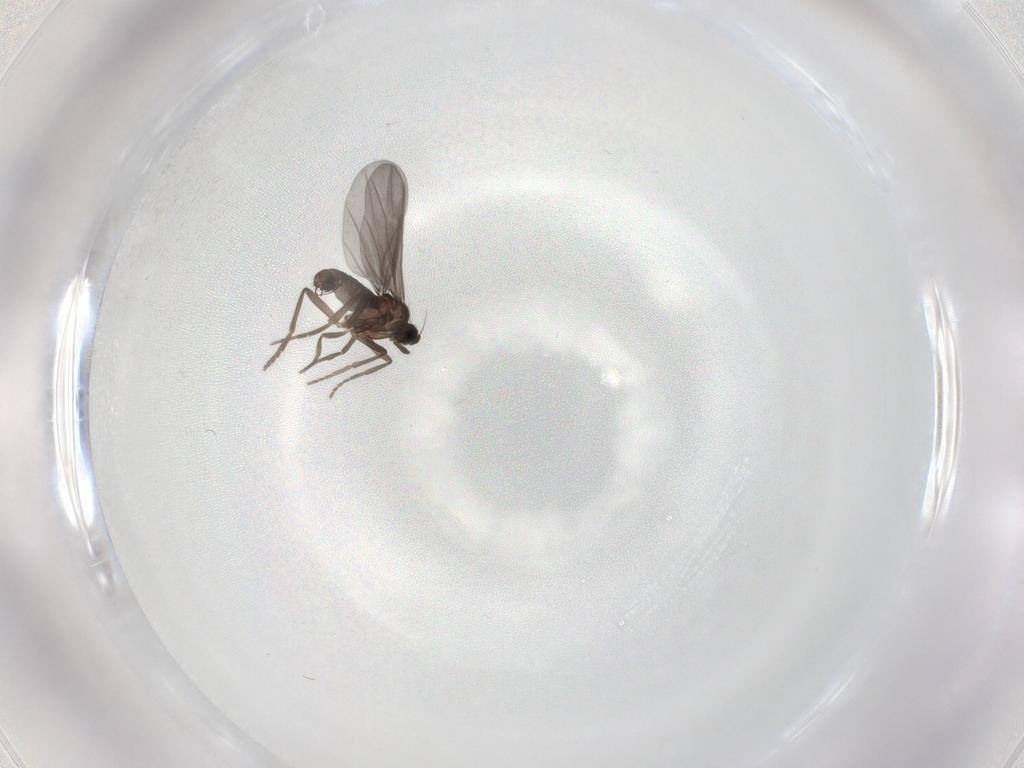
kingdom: Animalia
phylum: Arthropoda
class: Insecta
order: Diptera
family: Phoridae
